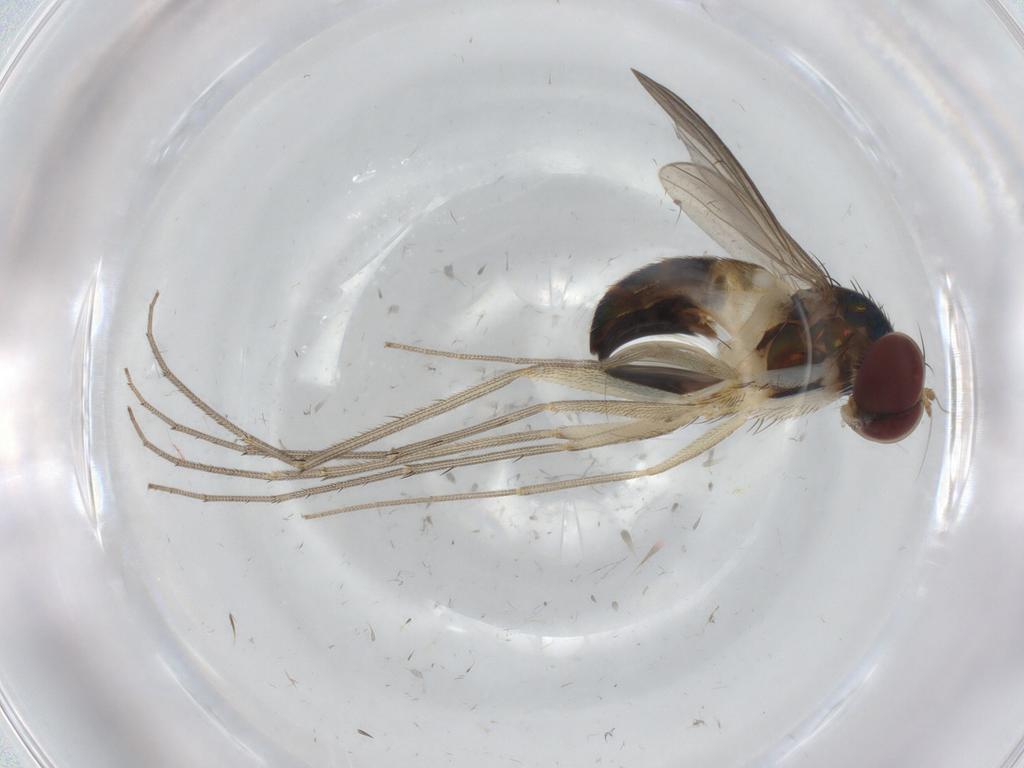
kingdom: Animalia
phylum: Arthropoda
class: Insecta
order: Diptera
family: Dolichopodidae
